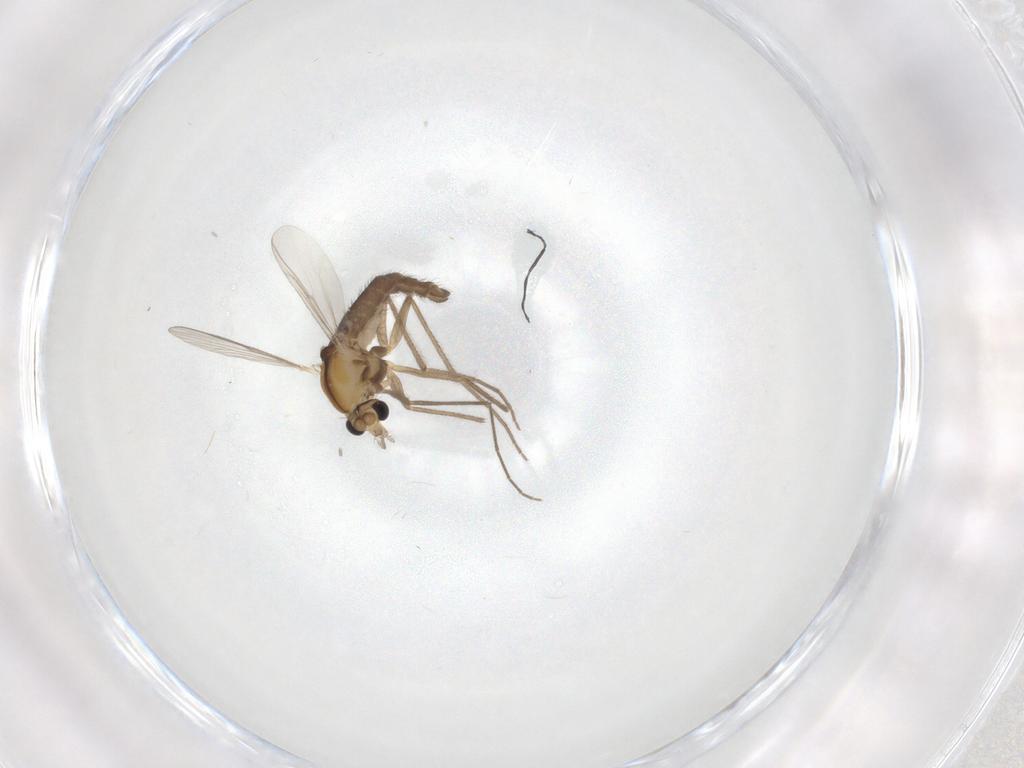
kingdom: Animalia
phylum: Arthropoda
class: Insecta
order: Diptera
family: Chironomidae
